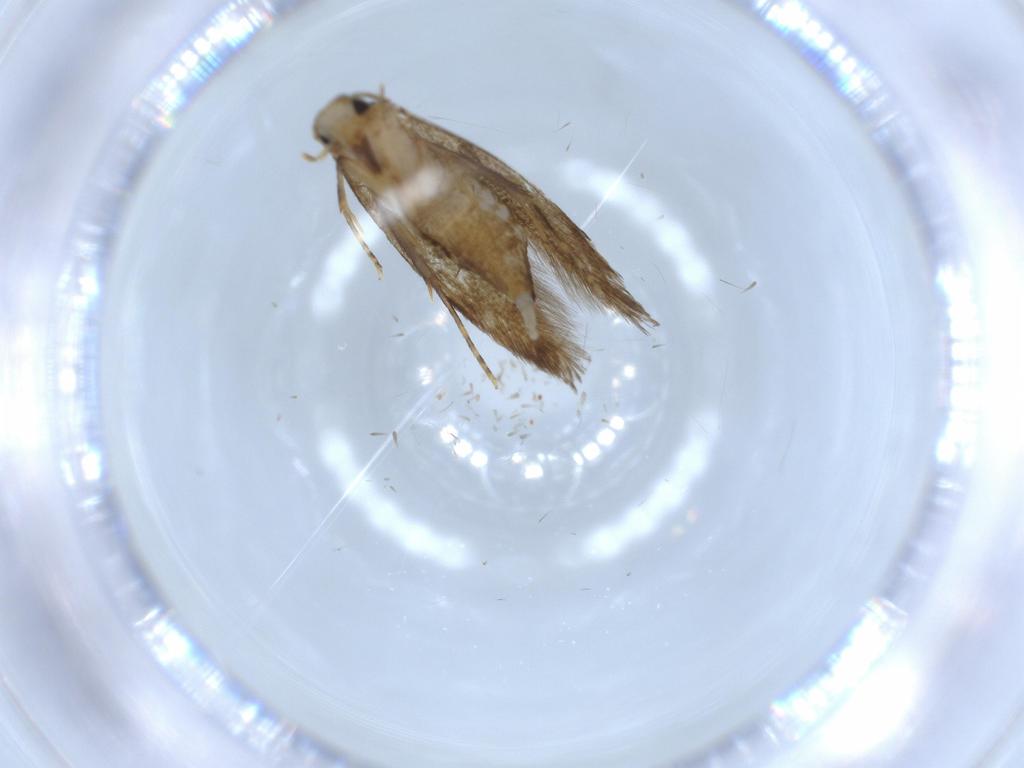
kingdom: Animalia
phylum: Arthropoda
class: Insecta
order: Lepidoptera
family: Tineidae
